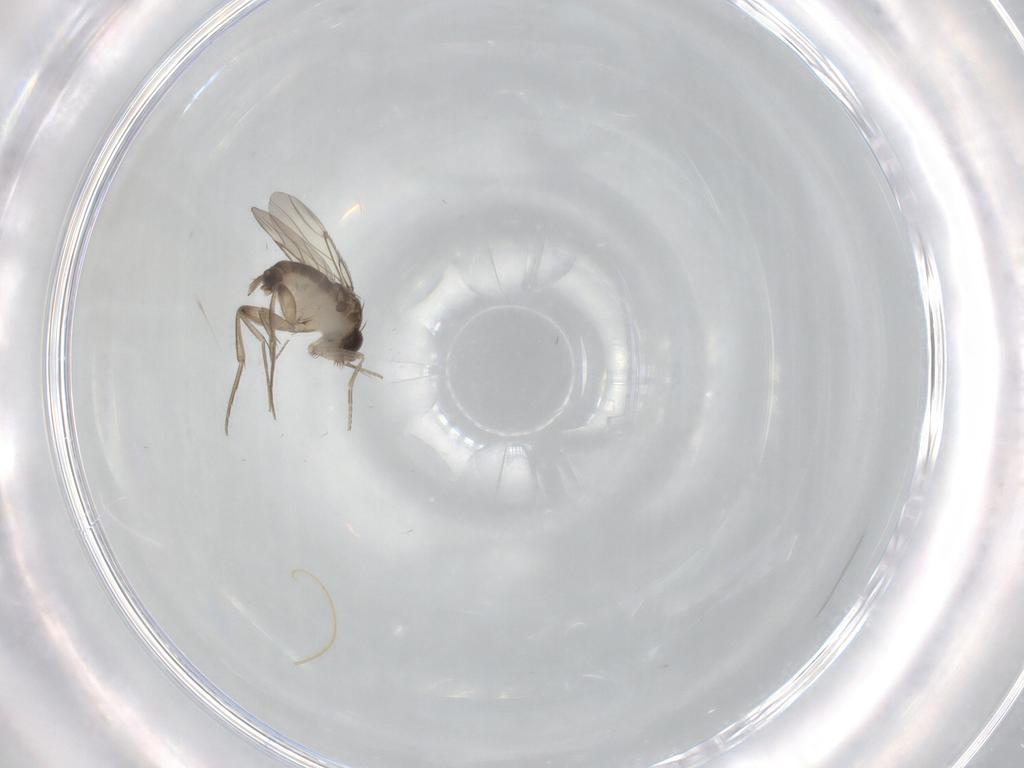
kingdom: Animalia
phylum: Arthropoda
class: Insecta
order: Diptera
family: Phoridae
